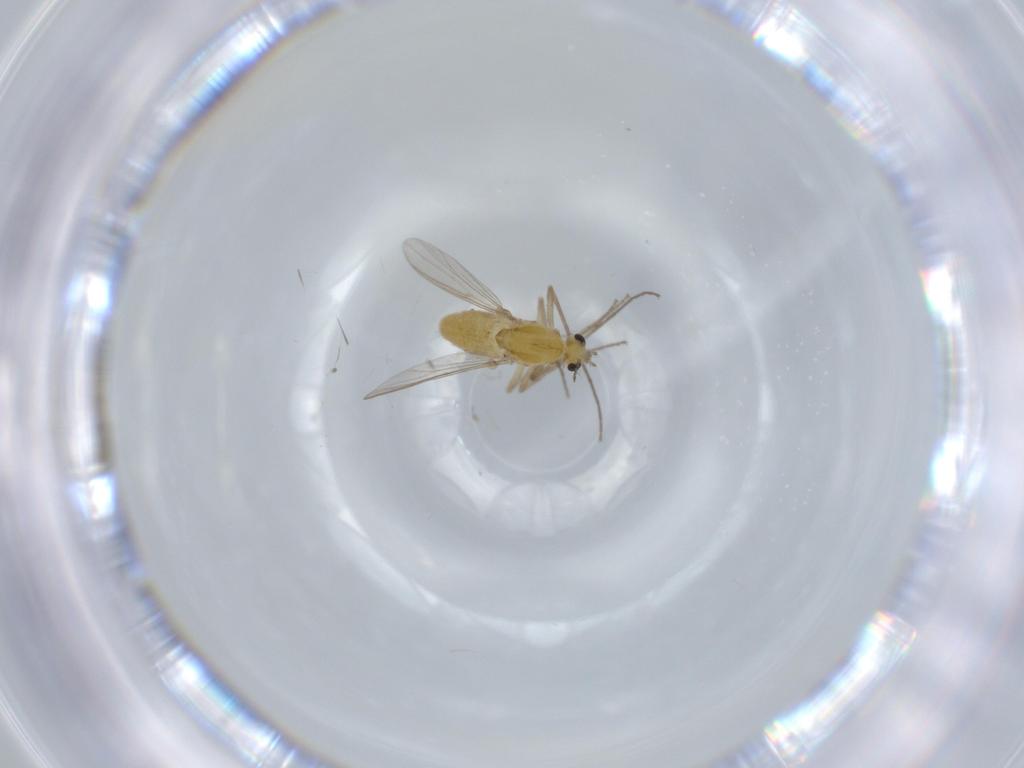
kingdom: Animalia
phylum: Arthropoda
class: Insecta
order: Diptera
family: Chironomidae
